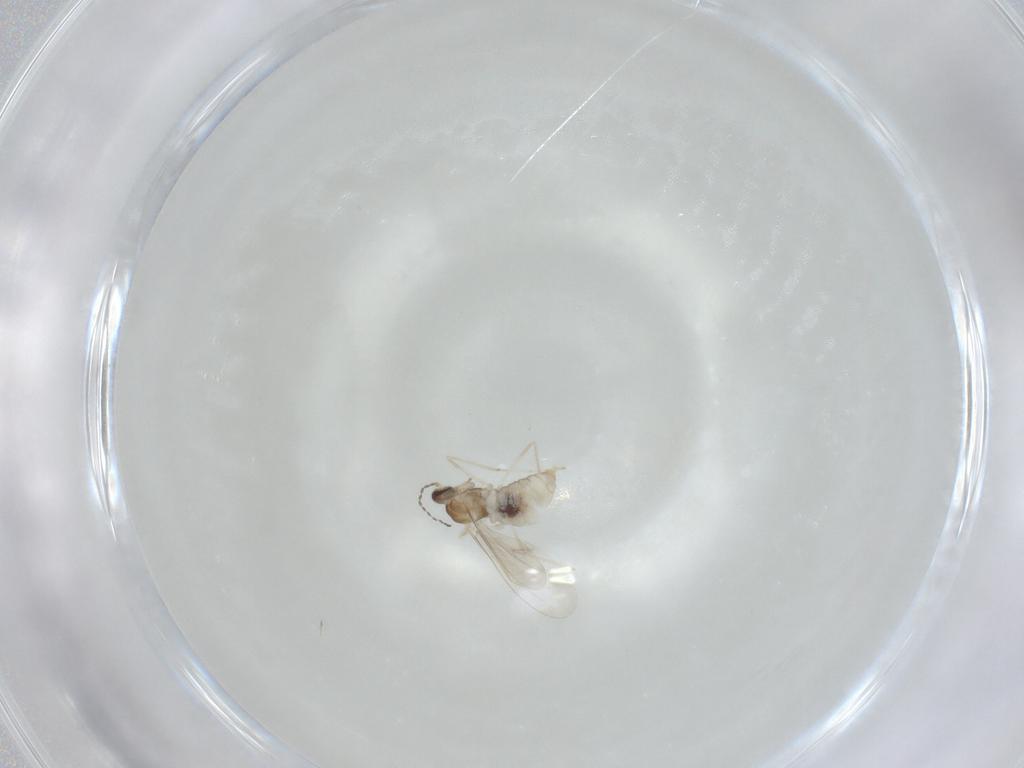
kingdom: Animalia
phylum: Arthropoda
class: Insecta
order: Diptera
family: Cecidomyiidae
